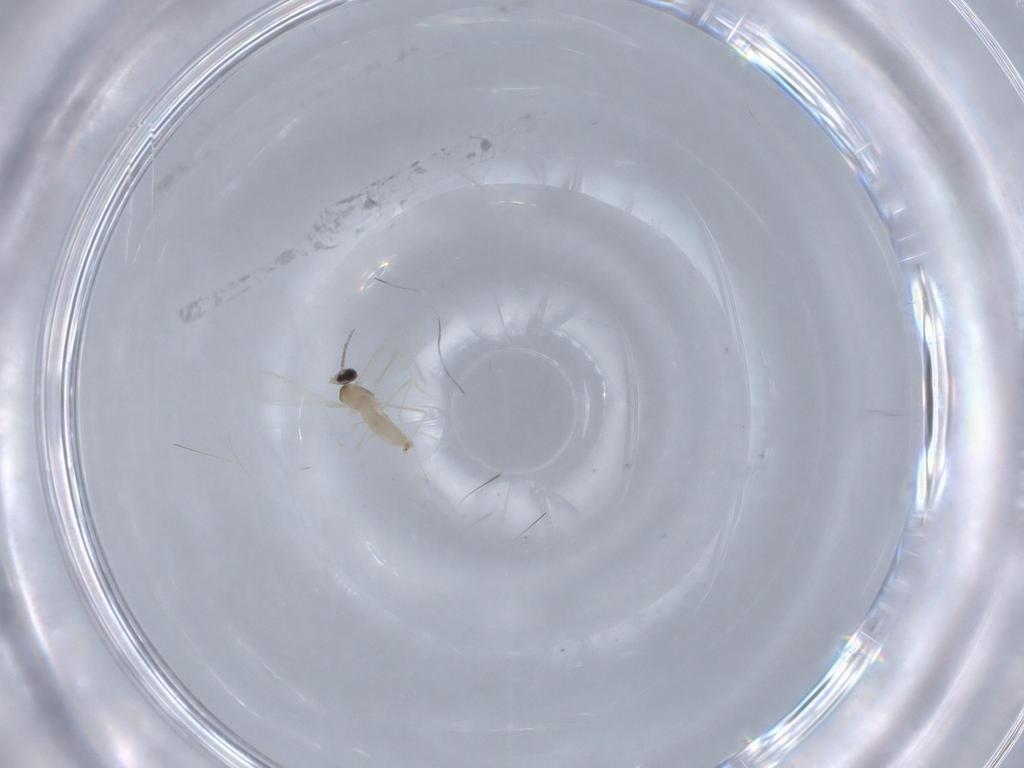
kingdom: Animalia
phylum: Arthropoda
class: Insecta
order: Diptera
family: Cecidomyiidae
